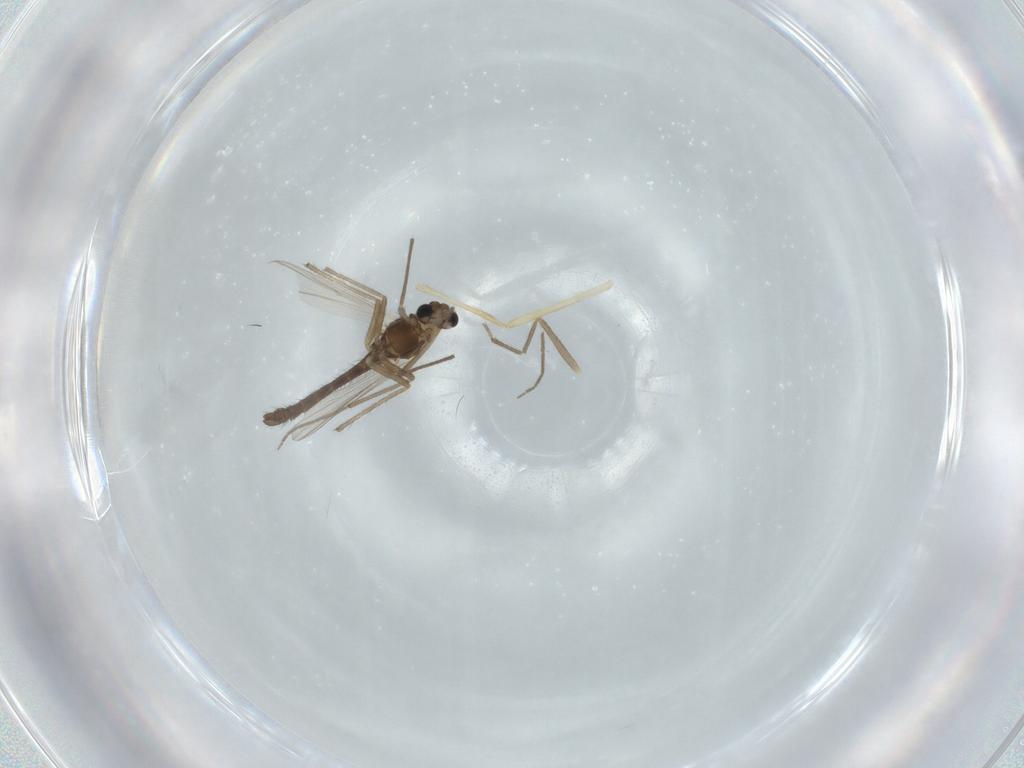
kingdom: Animalia
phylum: Arthropoda
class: Insecta
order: Diptera
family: Chironomidae
